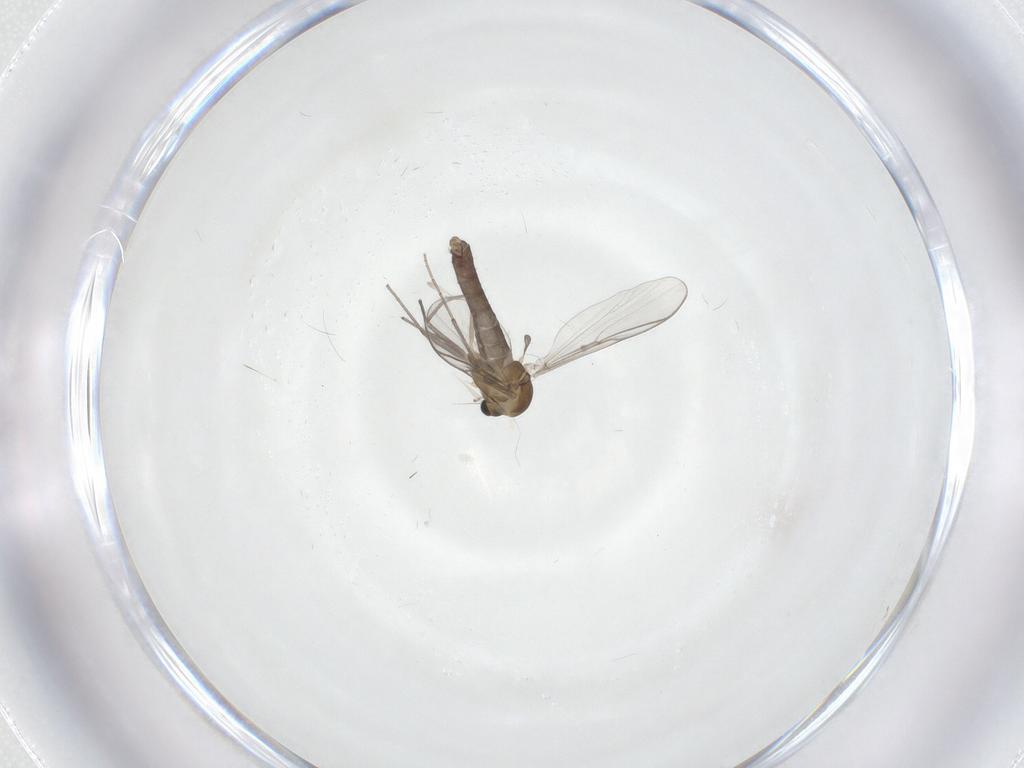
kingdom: Animalia
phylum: Arthropoda
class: Insecta
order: Diptera
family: Chironomidae
